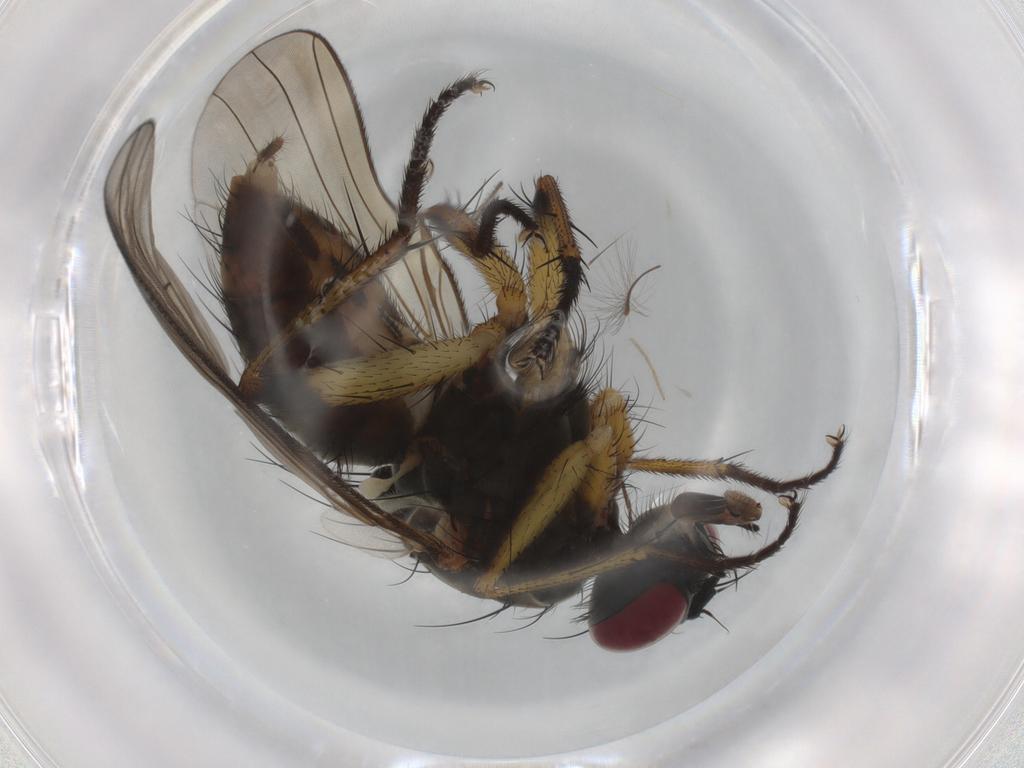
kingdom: Animalia
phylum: Arthropoda
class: Insecta
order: Diptera
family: Muscidae
